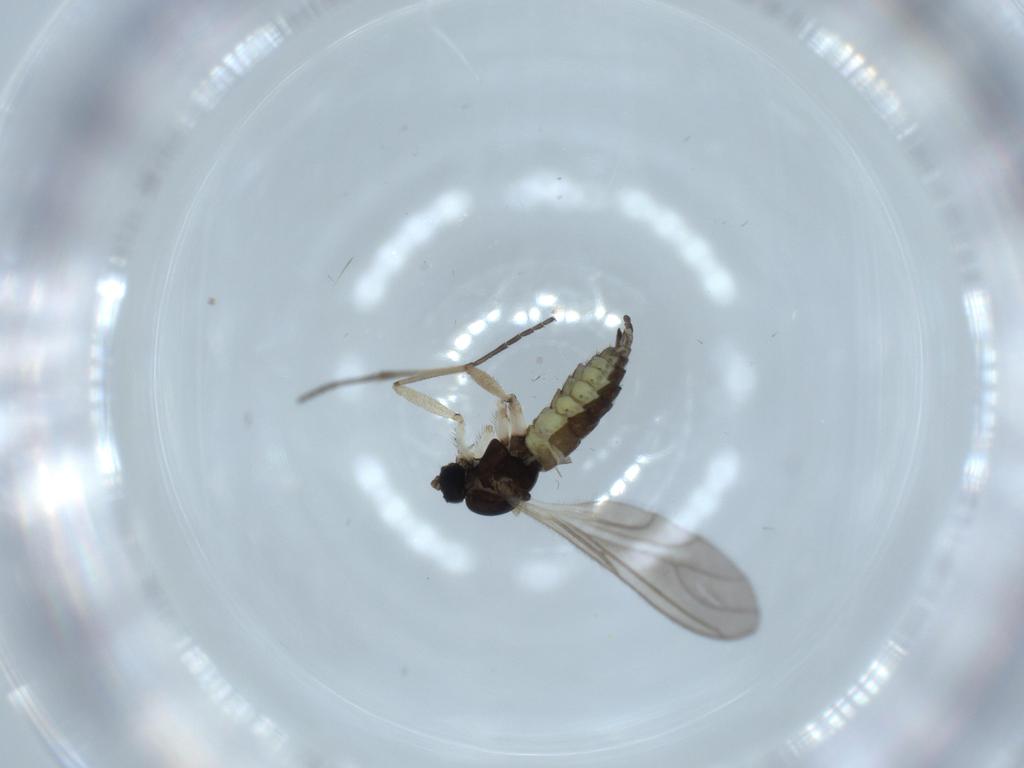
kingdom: Animalia
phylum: Arthropoda
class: Insecta
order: Diptera
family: Sciaridae
